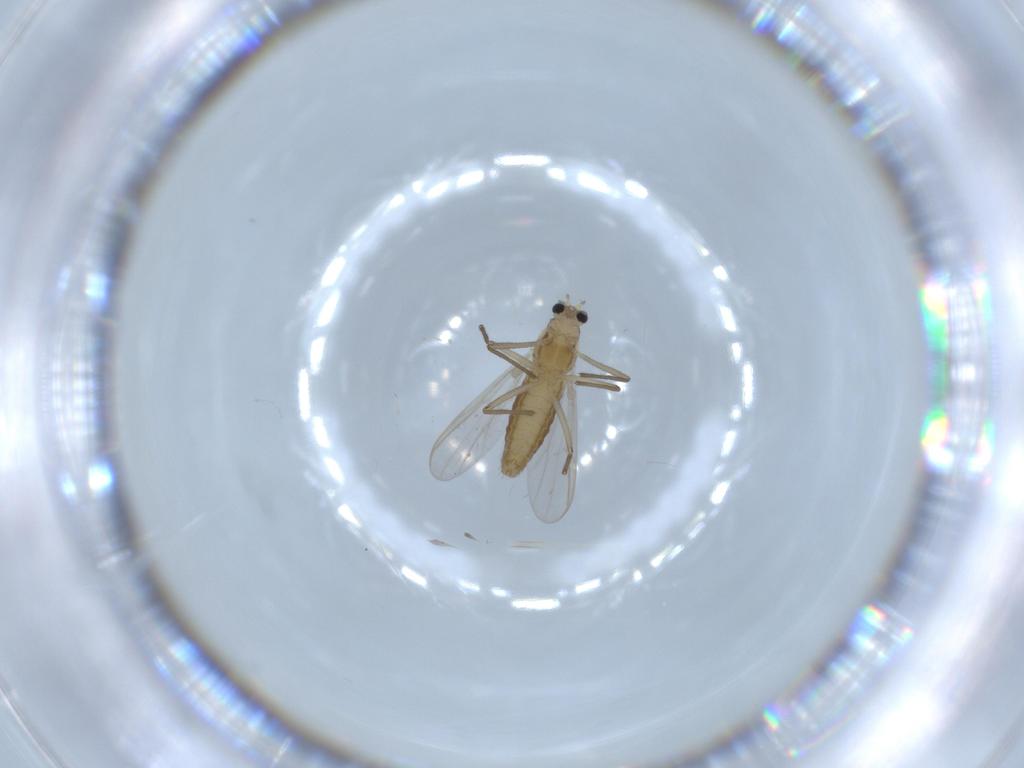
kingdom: Animalia
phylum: Arthropoda
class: Insecta
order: Diptera
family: Chironomidae
